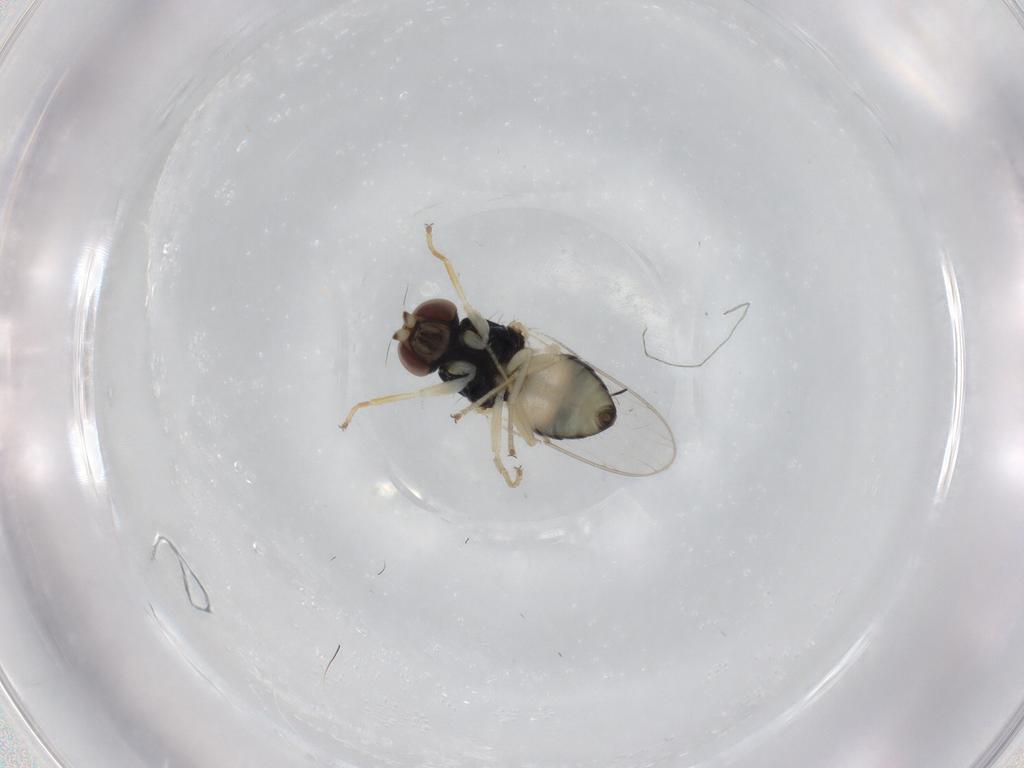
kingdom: Animalia
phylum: Arthropoda
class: Insecta
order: Diptera
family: Chloropidae
